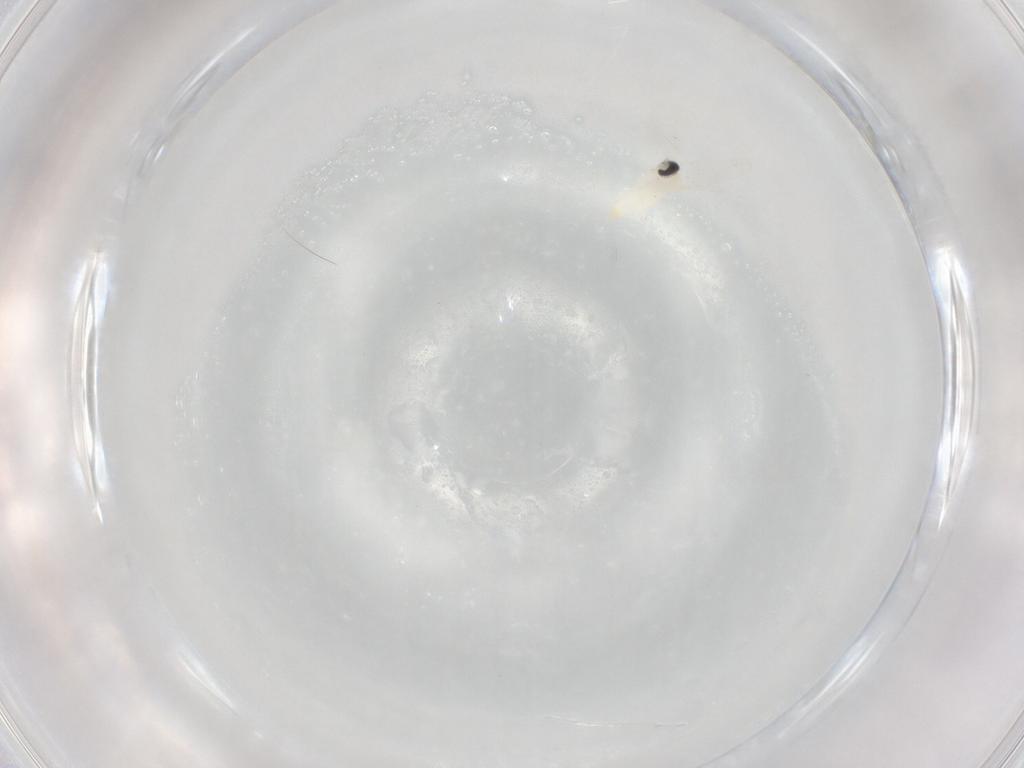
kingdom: Animalia
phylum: Arthropoda
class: Insecta
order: Diptera
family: Cecidomyiidae
